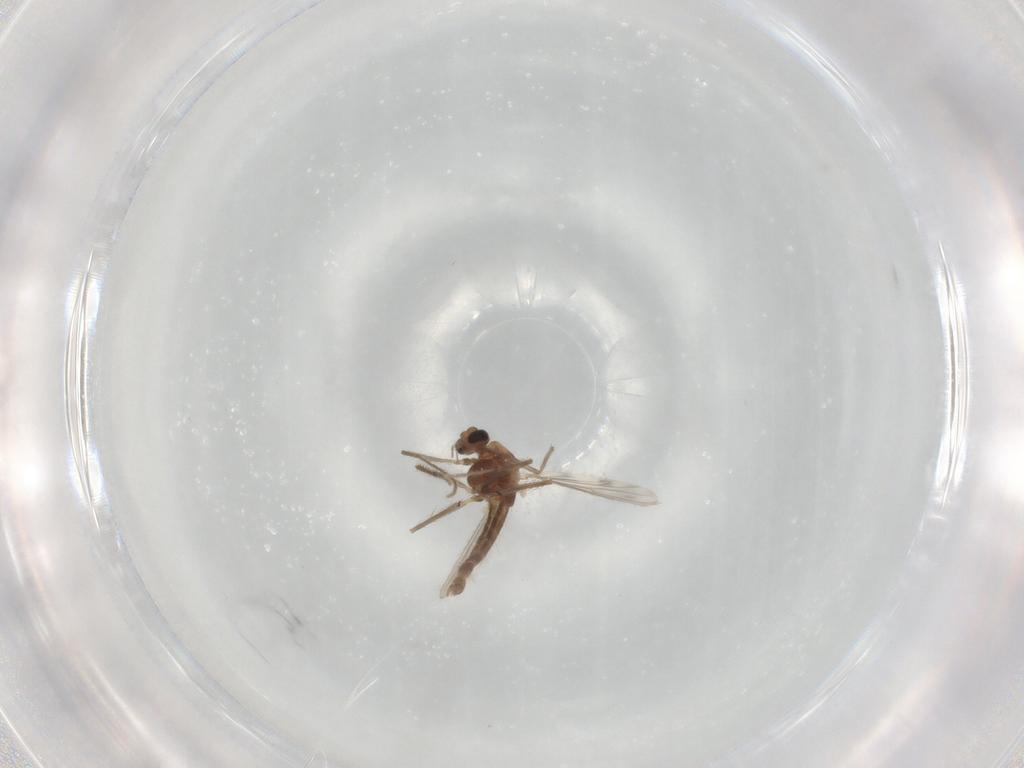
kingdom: Animalia
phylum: Arthropoda
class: Insecta
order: Diptera
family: Chironomidae
